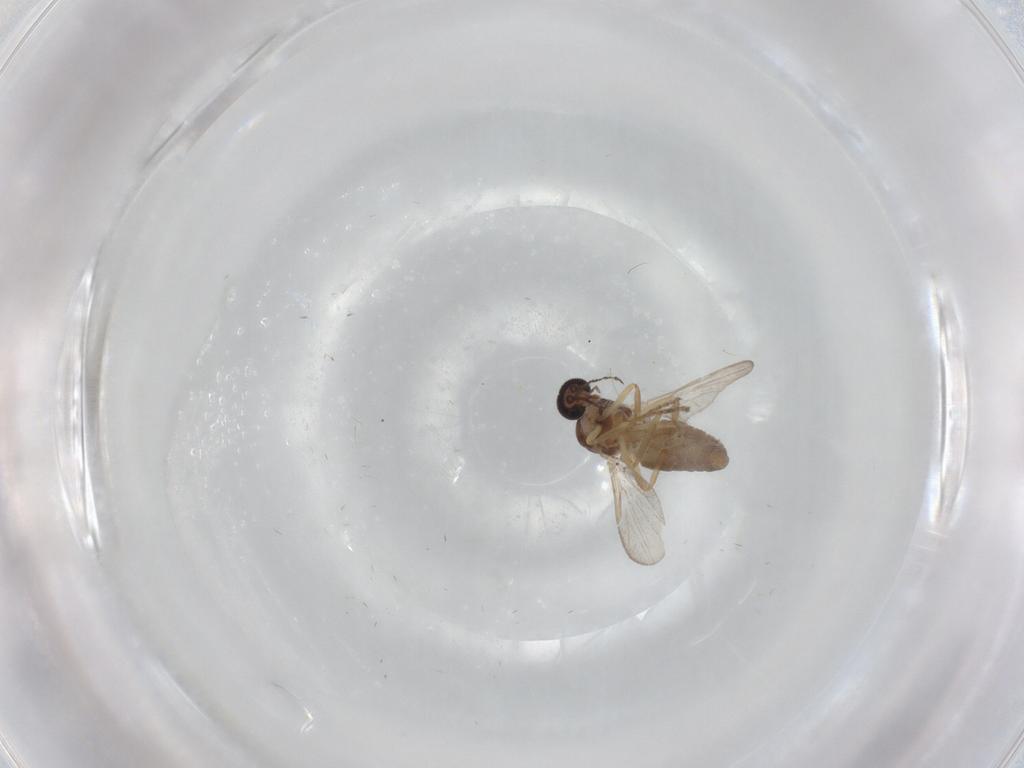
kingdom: Animalia
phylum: Arthropoda
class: Insecta
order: Diptera
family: Ceratopogonidae
